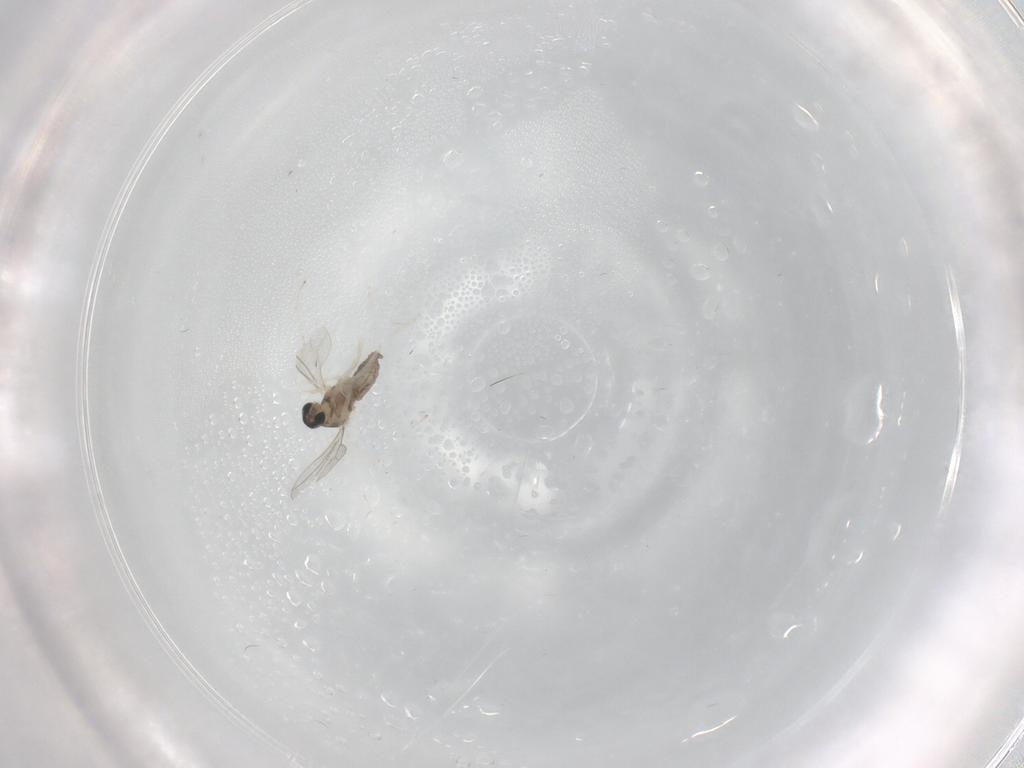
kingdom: Animalia
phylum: Arthropoda
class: Insecta
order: Diptera
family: Cecidomyiidae
